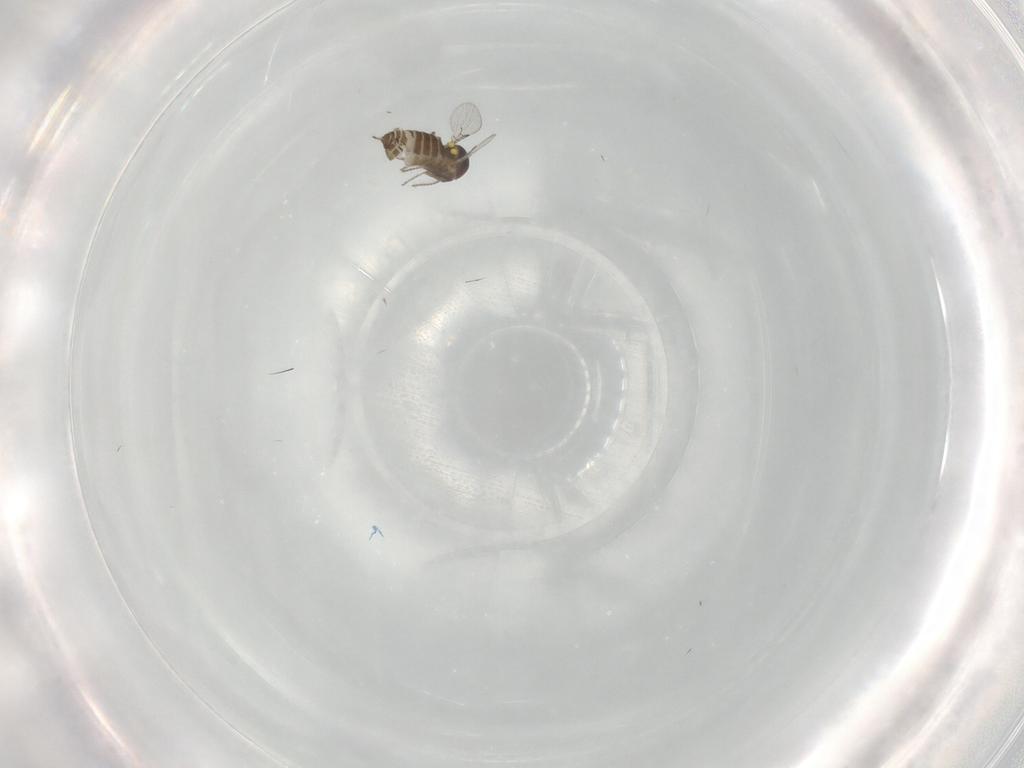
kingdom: Animalia
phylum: Arthropoda
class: Insecta
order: Diptera
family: Ceratopogonidae
